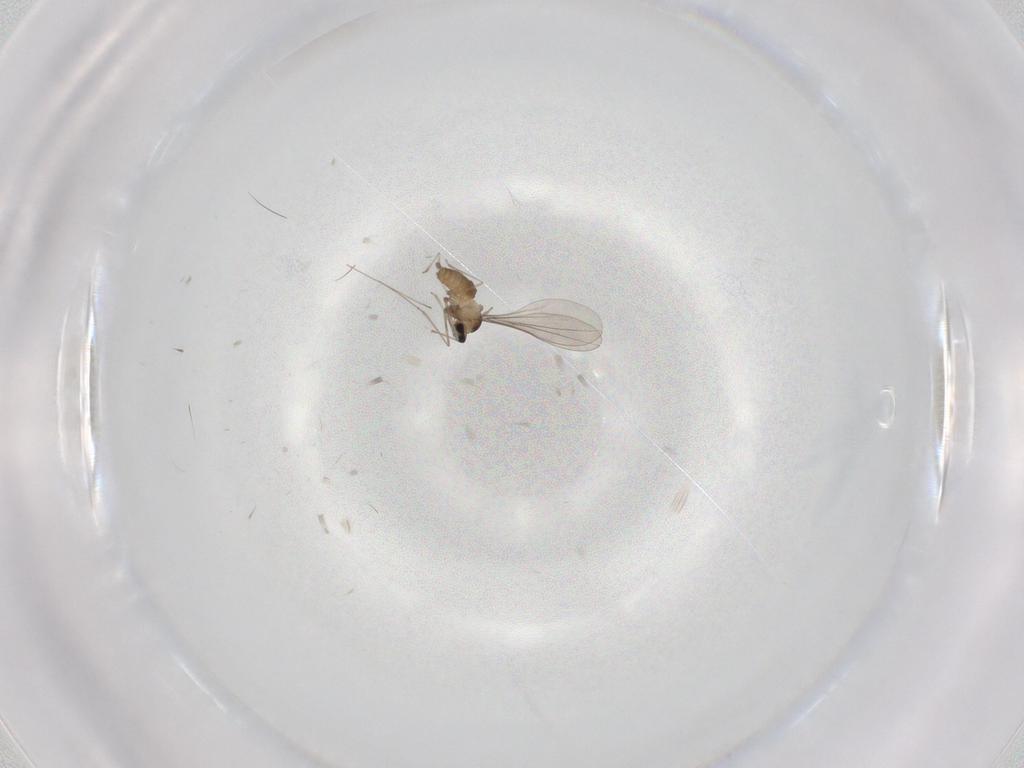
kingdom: Animalia
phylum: Arthropoda
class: Insecta
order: Diptera
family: Cecidomyiidae
